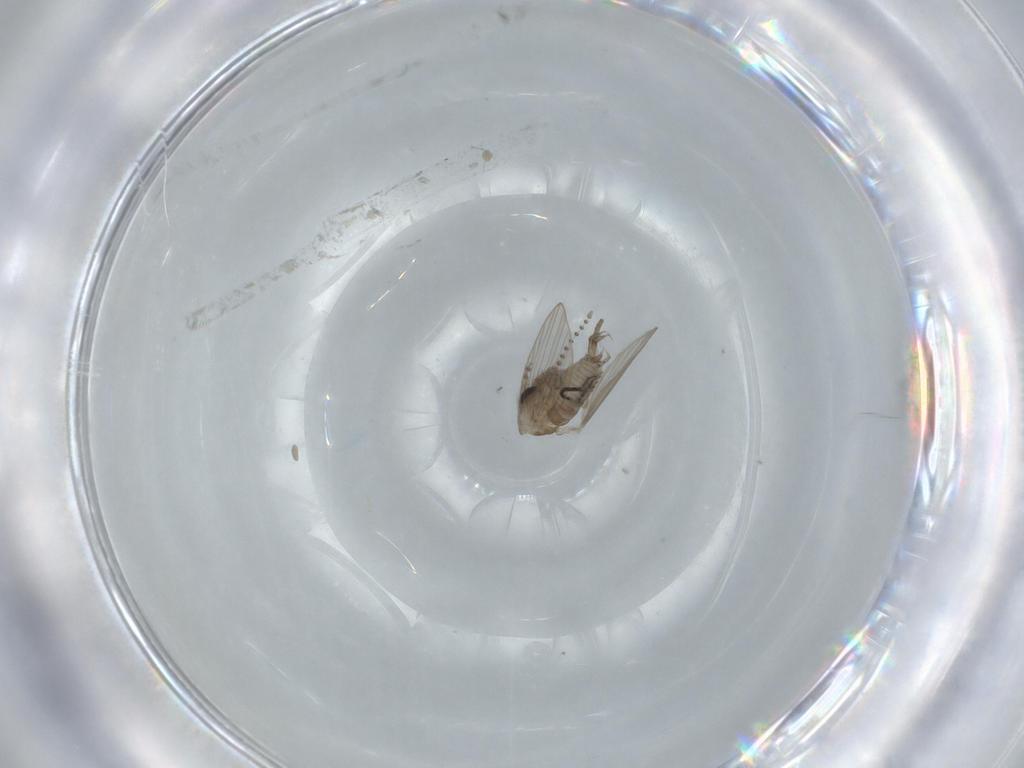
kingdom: Animalia
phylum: Arthropoda
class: Insecta
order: Diptera
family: Psychodidae
